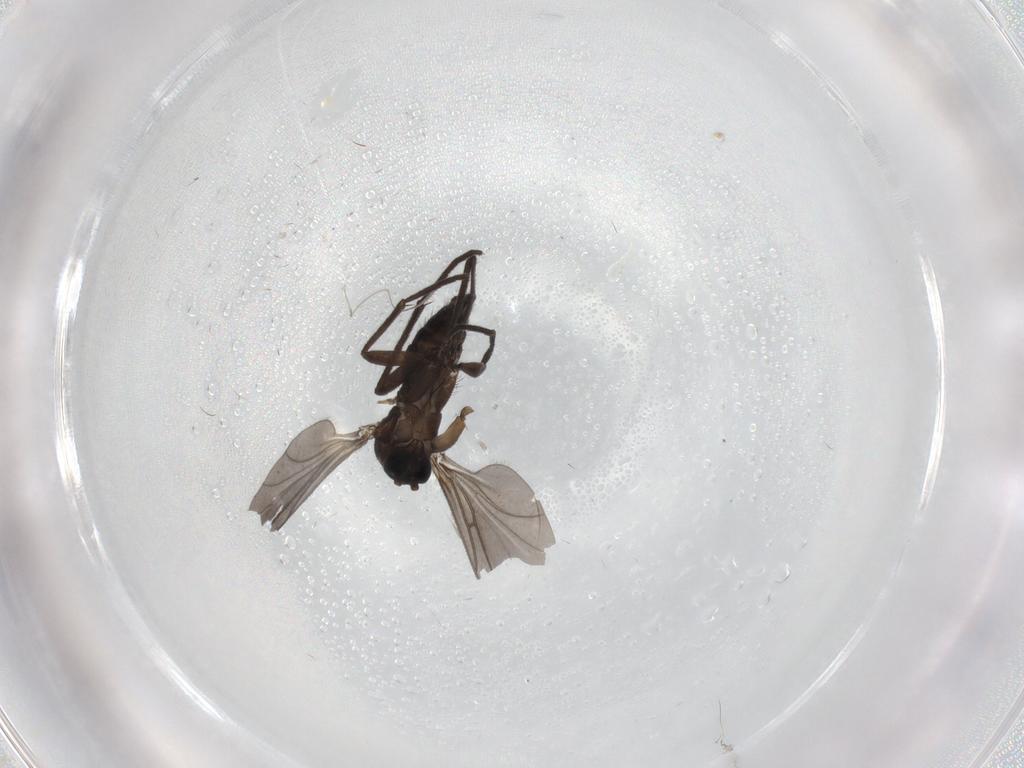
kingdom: Animalia
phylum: Arthropoda
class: Insecta
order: Diptera
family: Sciaridae
